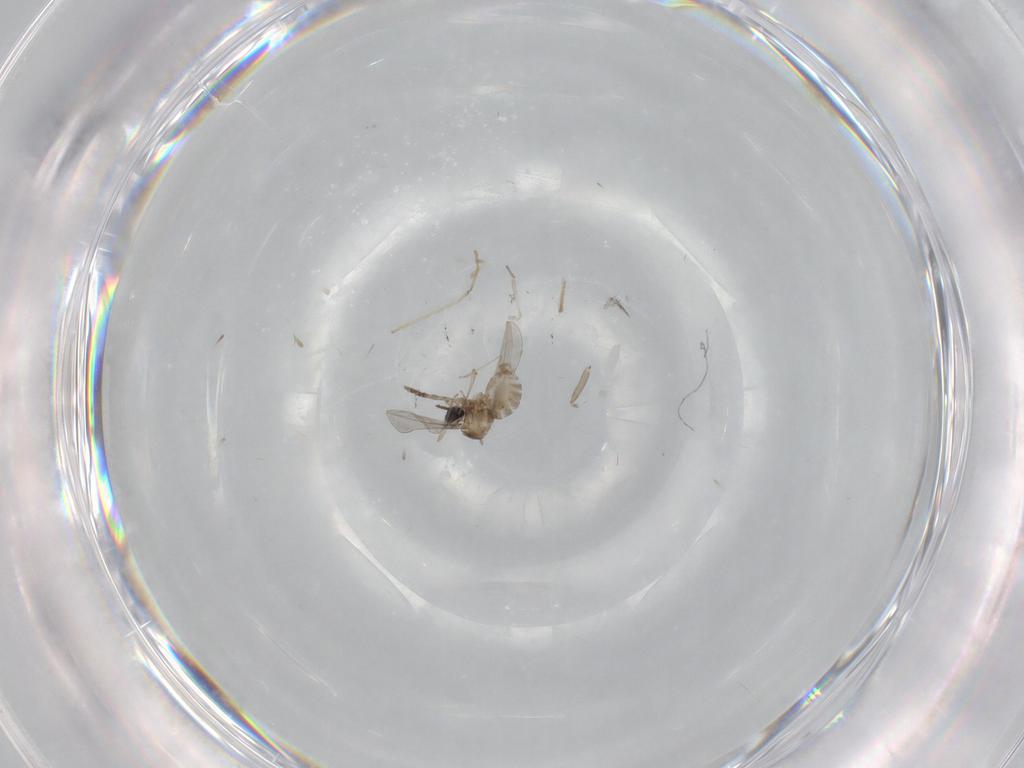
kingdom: Animalia
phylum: Arthropoda
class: Insecta
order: Diptera
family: Cecidomyiidae
